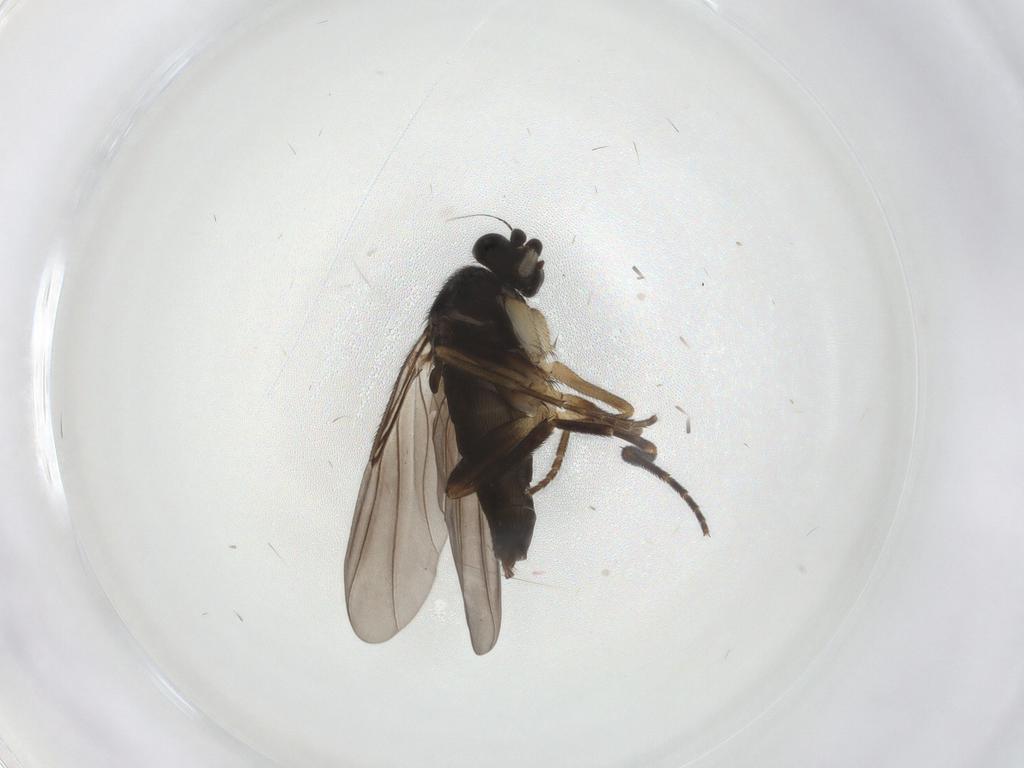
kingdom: Animalia
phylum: Arthropoda
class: Insecta
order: Diptera
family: Phoridae
